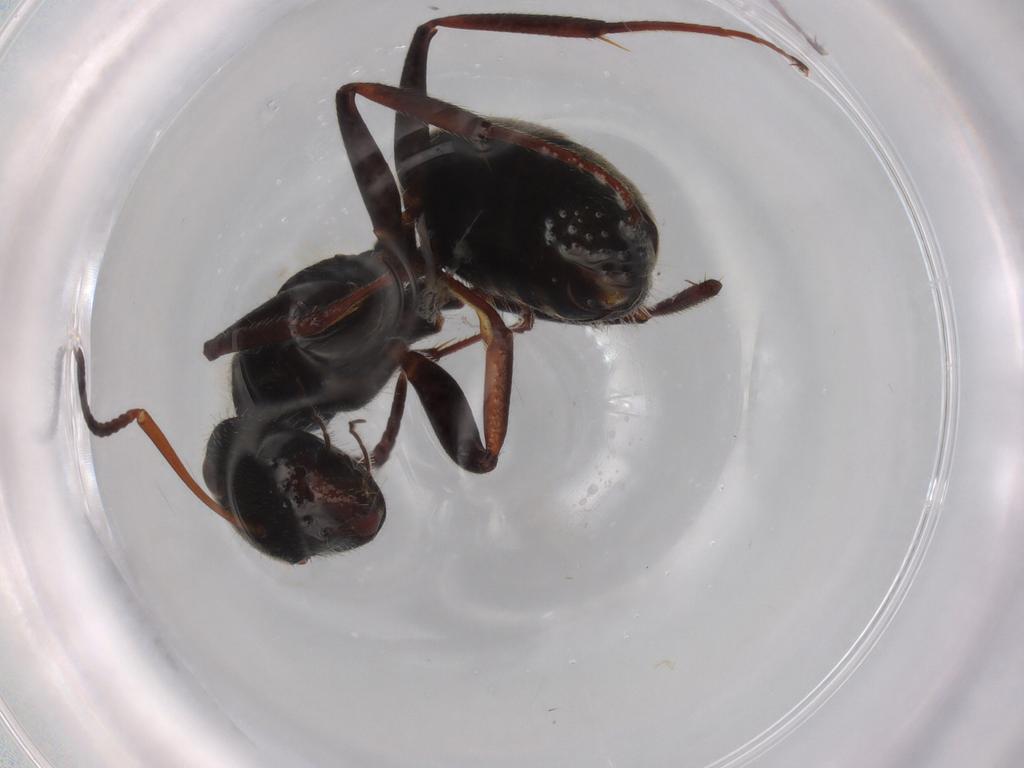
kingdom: Animalia
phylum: Arthropoda
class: Insecta
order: Hymenoptera
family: Formicidae
